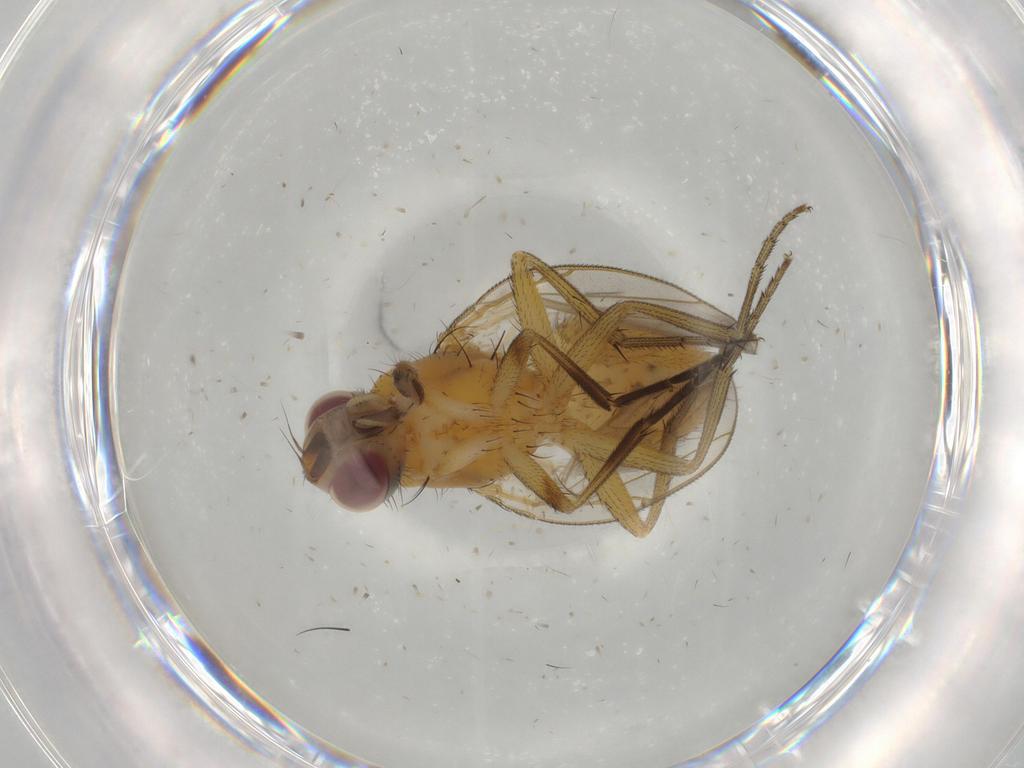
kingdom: Animalia
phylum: Arthropoda
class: Insecta
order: Diptera
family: Muscidae
